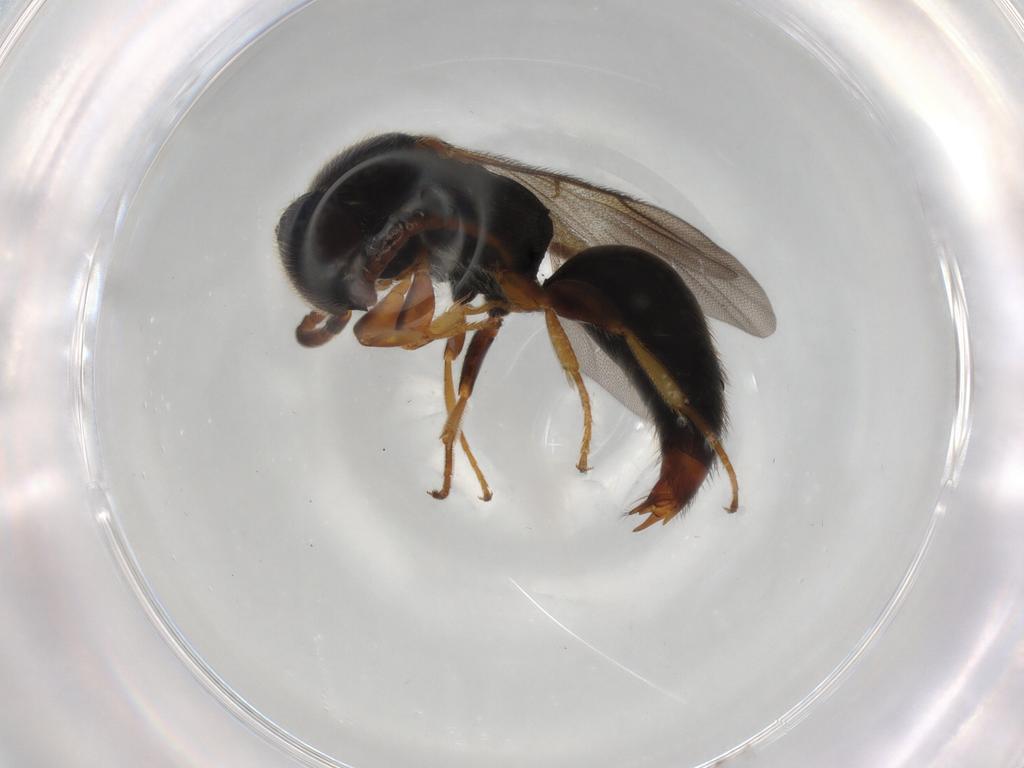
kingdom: Animalia
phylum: Arthropoda
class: Insecta
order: Hymenoptera
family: Bethylidae
